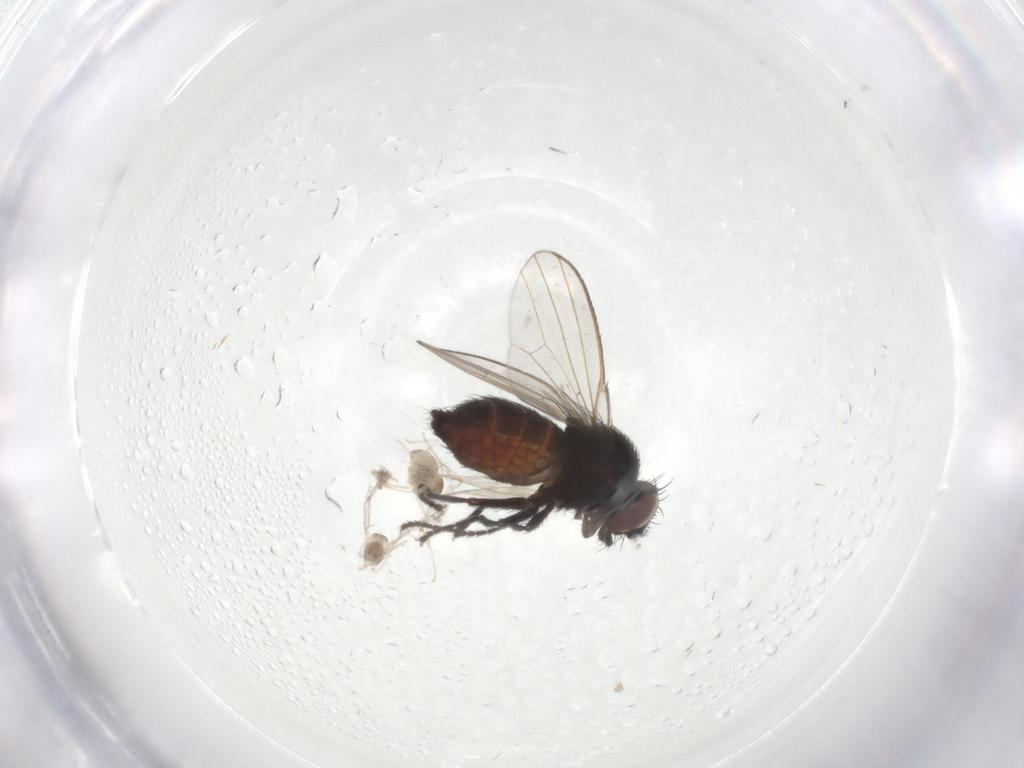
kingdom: Animalia
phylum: Arthropoda
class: Insecta
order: Diptera
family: Milichiidae
